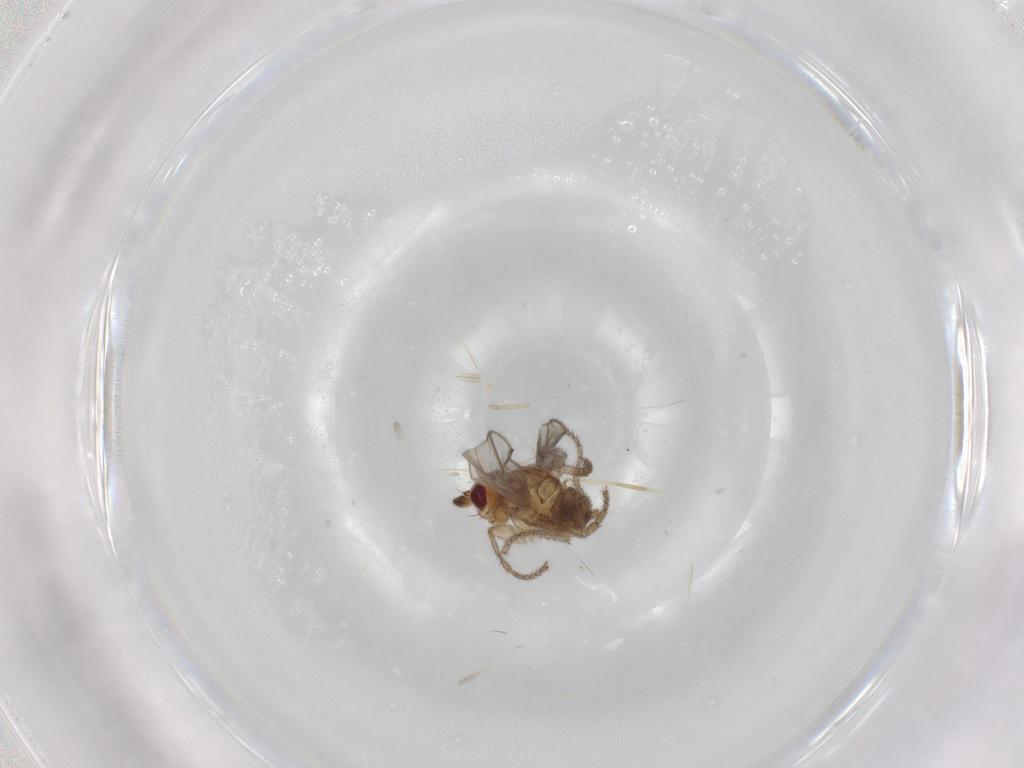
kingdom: Animalia
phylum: Arthropoda
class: Insecta
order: Diptera
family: Sphaeroceridae
